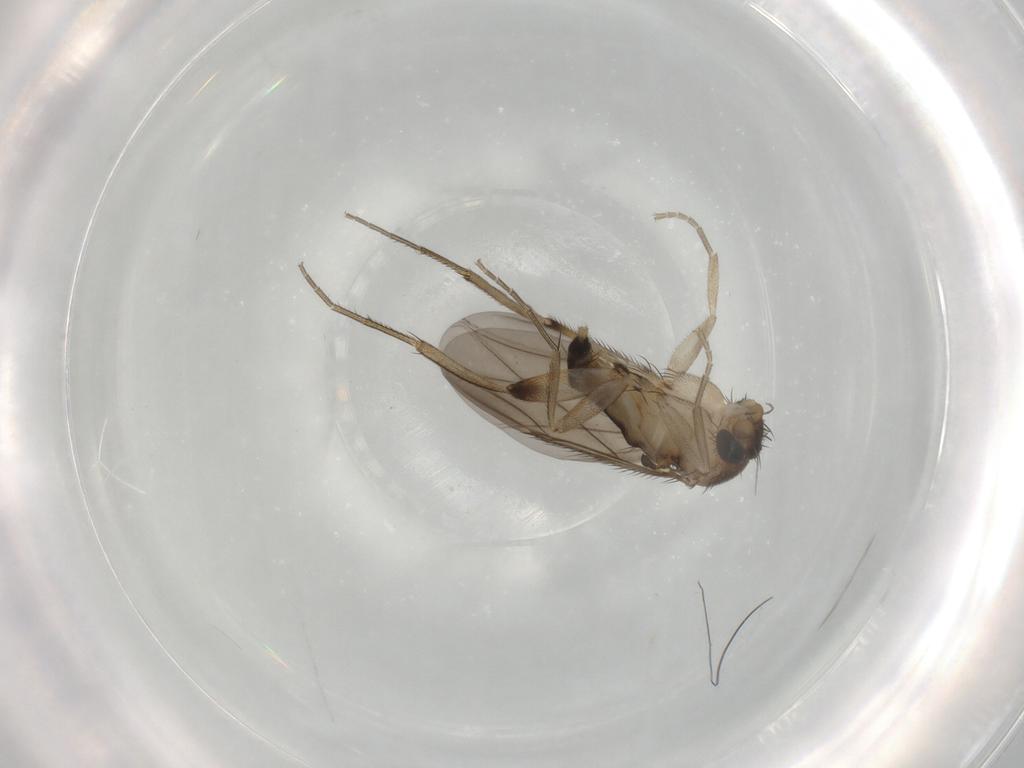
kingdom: Animalia
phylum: Arthropoda
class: Insecta
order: Diptera
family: Phoridae
